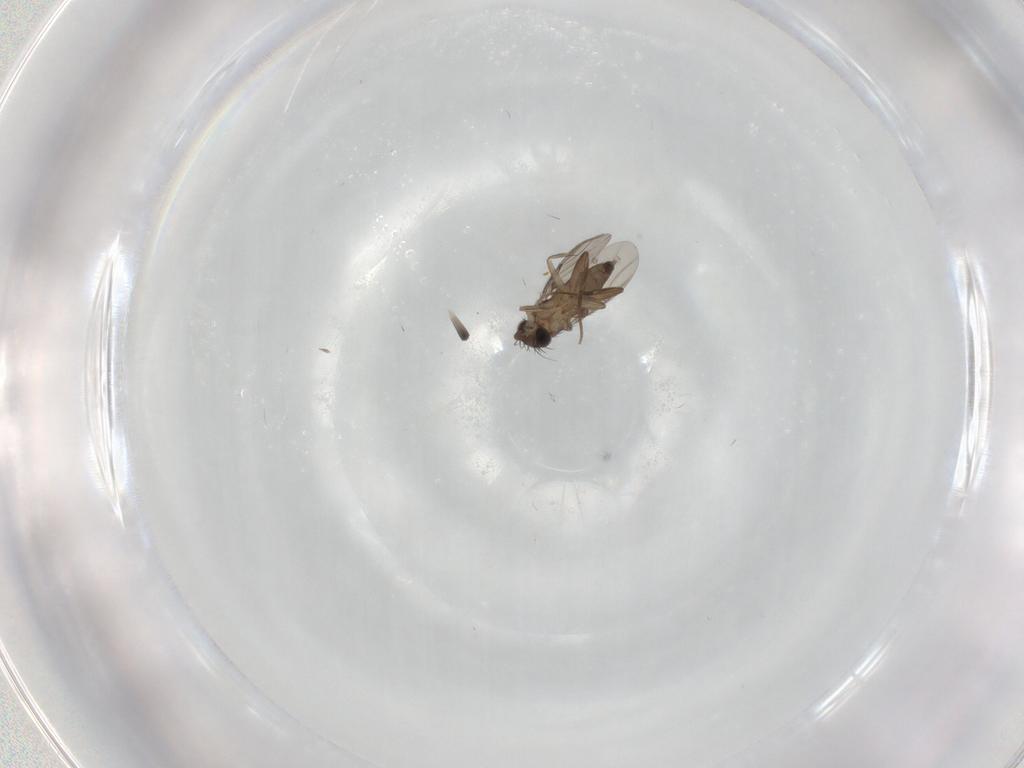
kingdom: Animalia
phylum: Arthropoda
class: Insecta
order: Diptera
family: Phoridae
